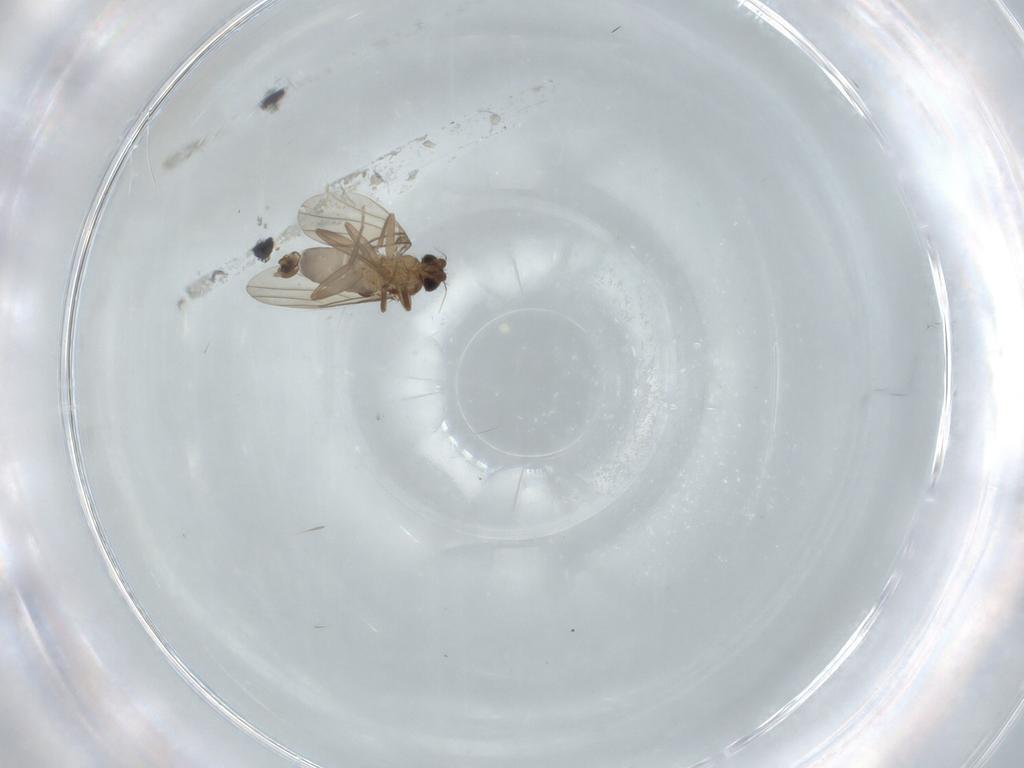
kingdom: Animalia
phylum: Arthropoda
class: Insecta
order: Diptera
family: Phoridae
